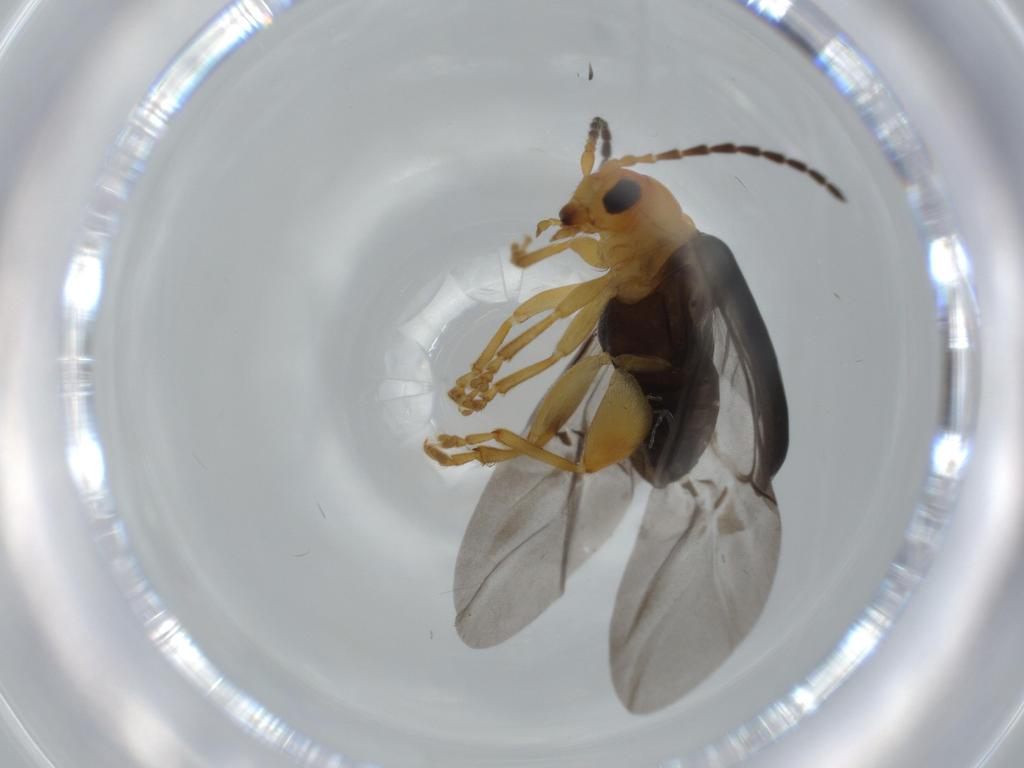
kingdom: Animalia
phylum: Arthropoda
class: Insecta
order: Coleoptera
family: Chrysomelidae
